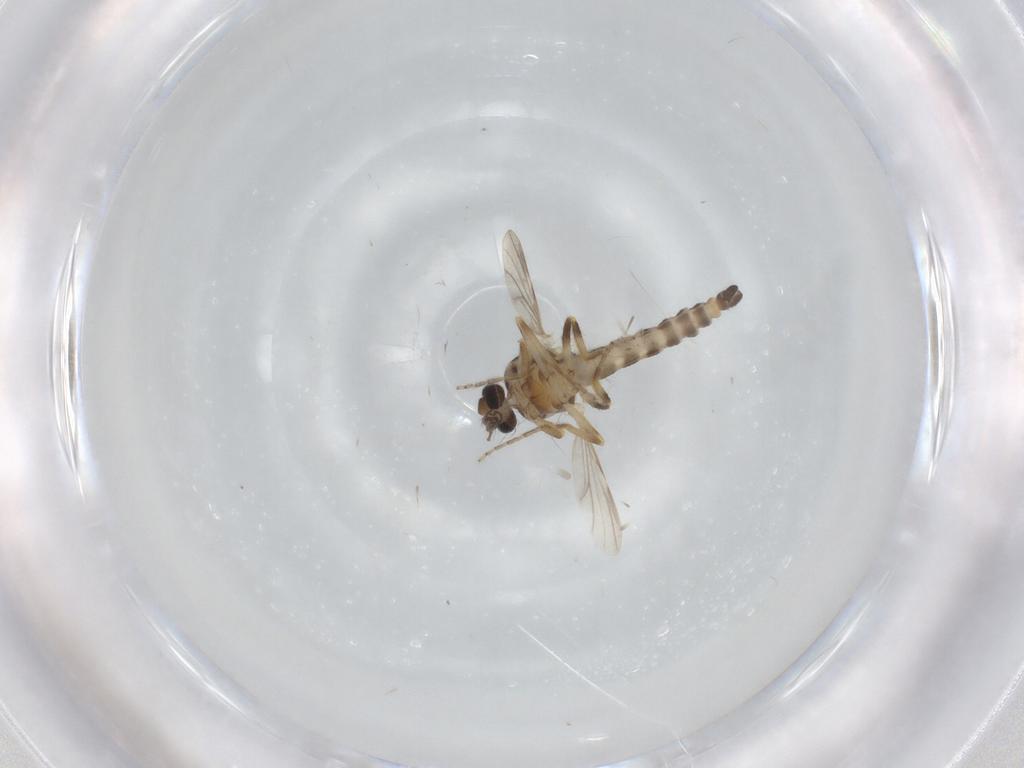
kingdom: Animalia
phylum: Arthropoda
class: Insecta
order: Diptera
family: Ceratopogonidae
